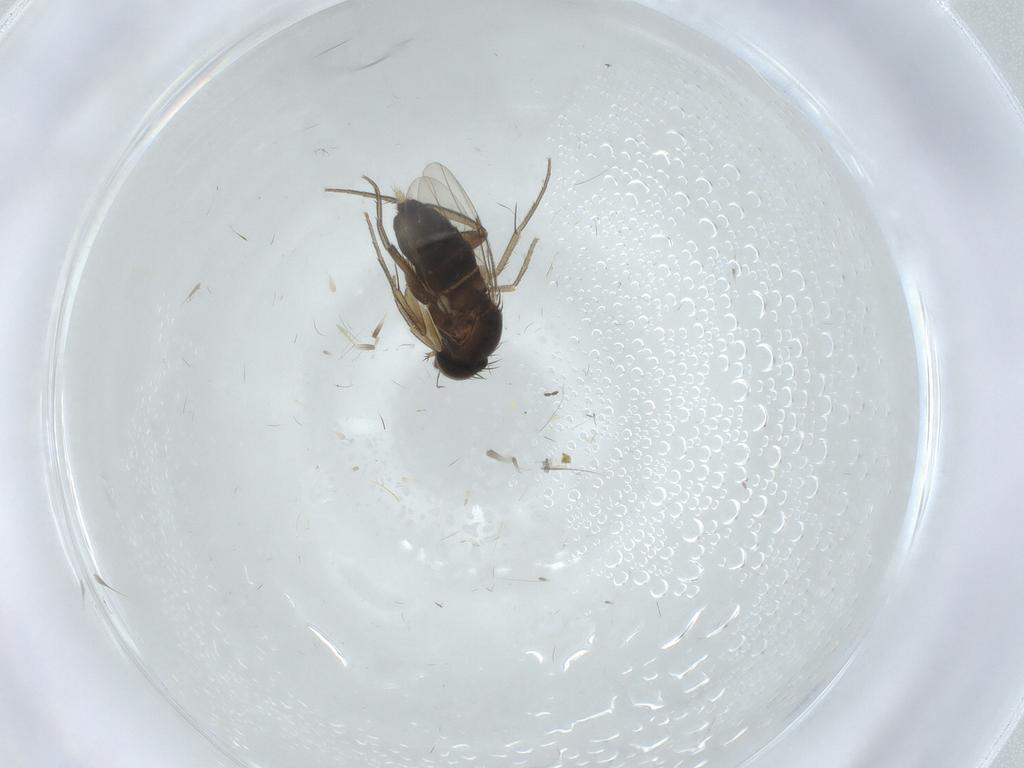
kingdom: Animalia
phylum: Arthropoda
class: Insecta
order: Diptera
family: Phoridae
